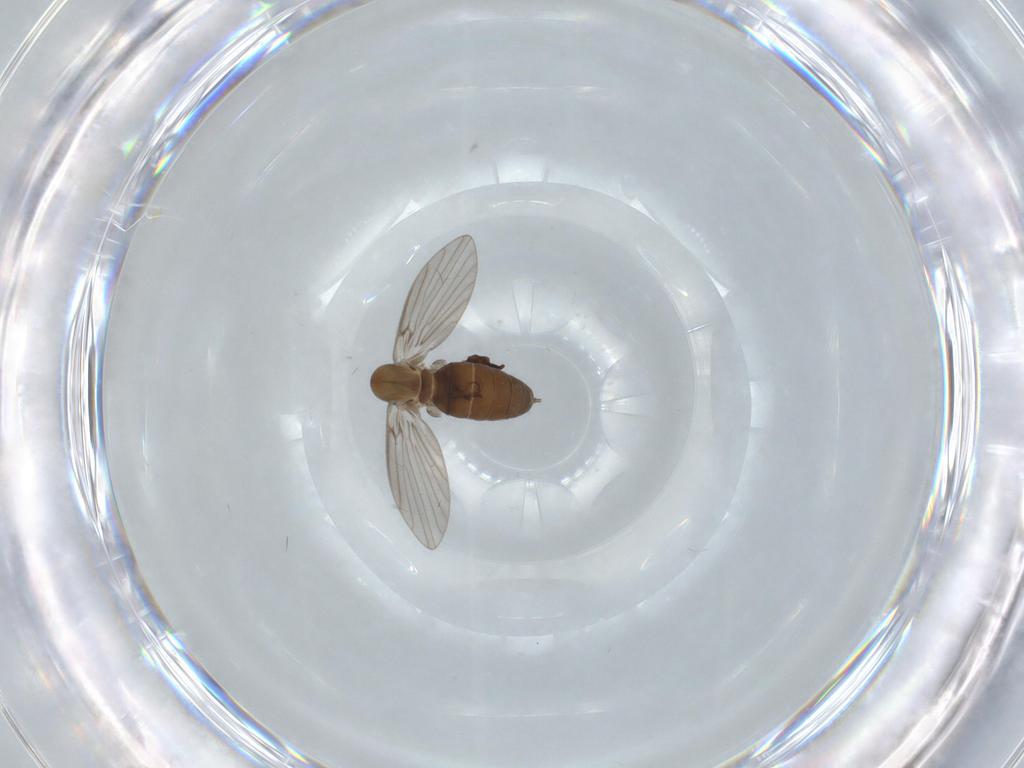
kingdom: Animalia
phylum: Arthropoda
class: Insecta
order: Diptera
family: Psychodidae
